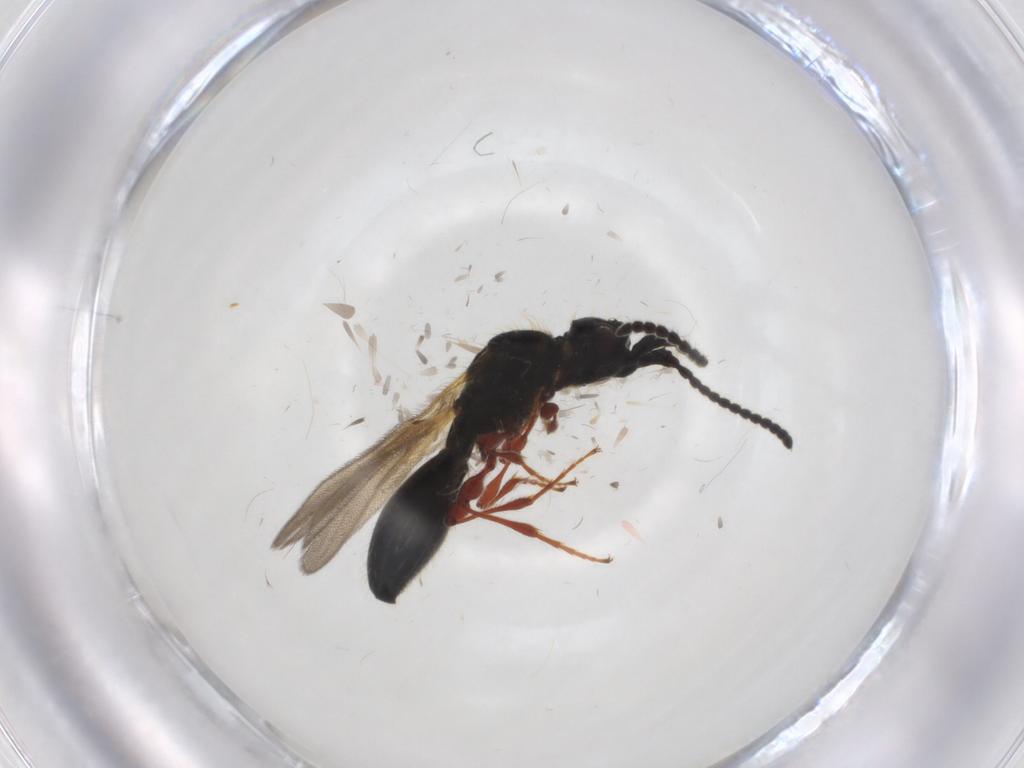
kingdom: Animalia
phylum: Arthropoda
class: Insecta
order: Hymenoptera
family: Diapriidae
